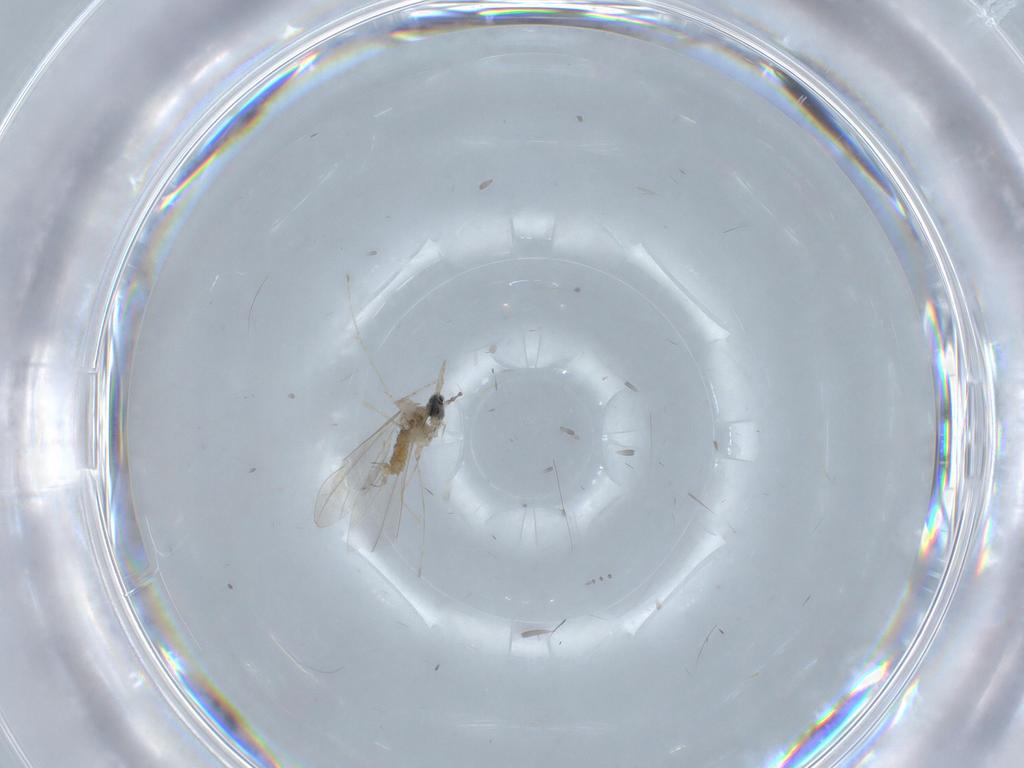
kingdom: Animalia
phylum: Arthropoda
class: Insecta
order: Diptera
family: Cecidomyiidae
